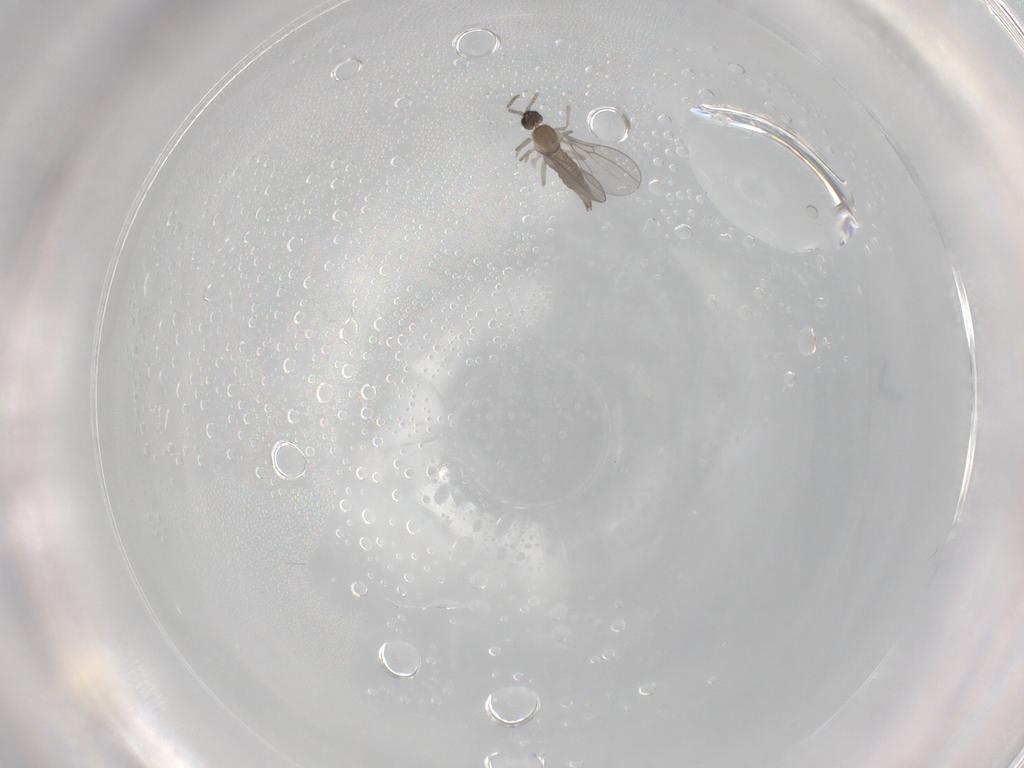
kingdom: Animalia
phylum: Arthropoda
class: Insecta
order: Diptera
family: Cecidomyiidae
